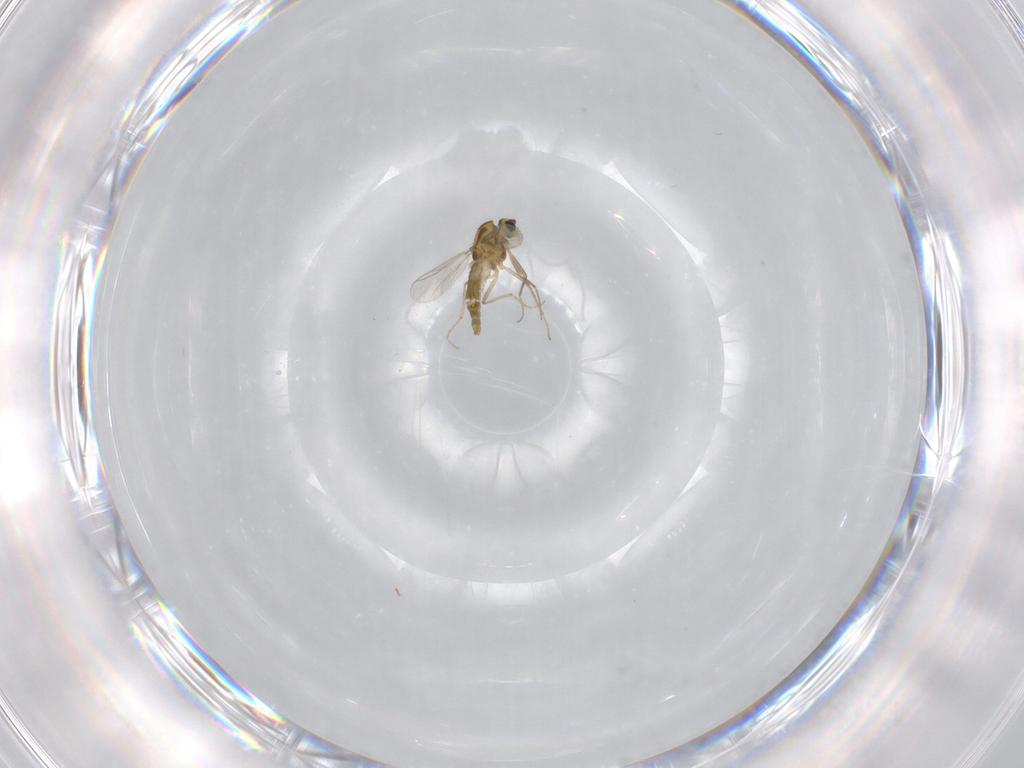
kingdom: Animalia
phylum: Arthropoda
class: Insecta
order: Diptera
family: Chironomidae
